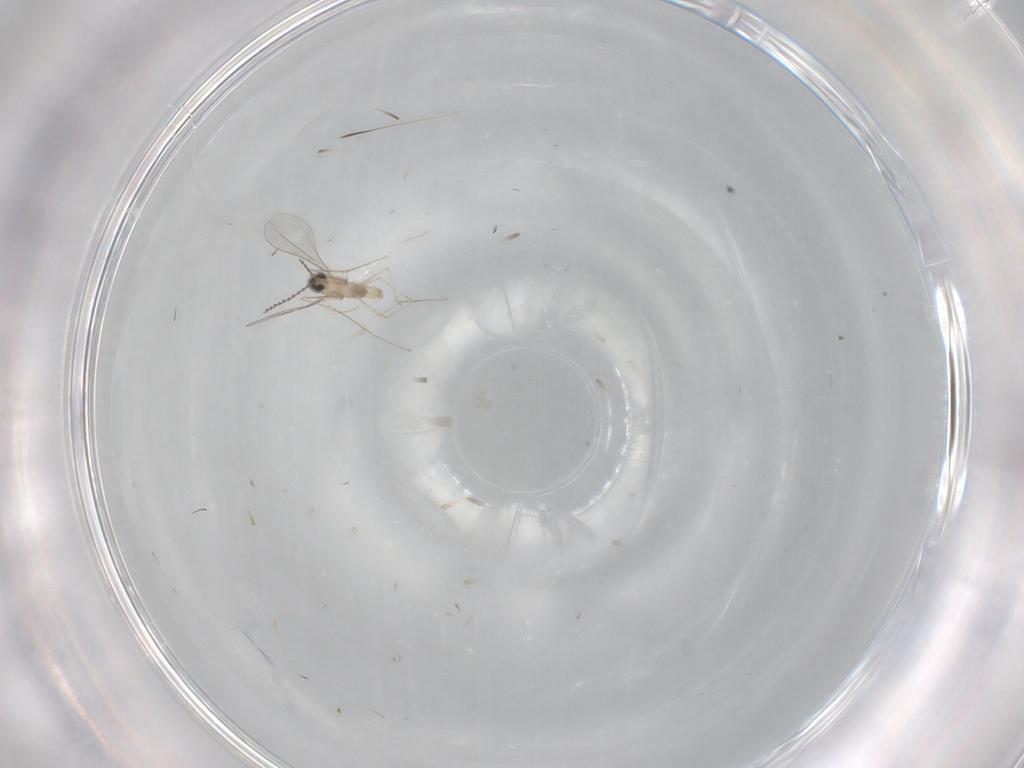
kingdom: Animalia
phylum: Arthropoda
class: Insecta
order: Diptera
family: Cecidomyiidae
